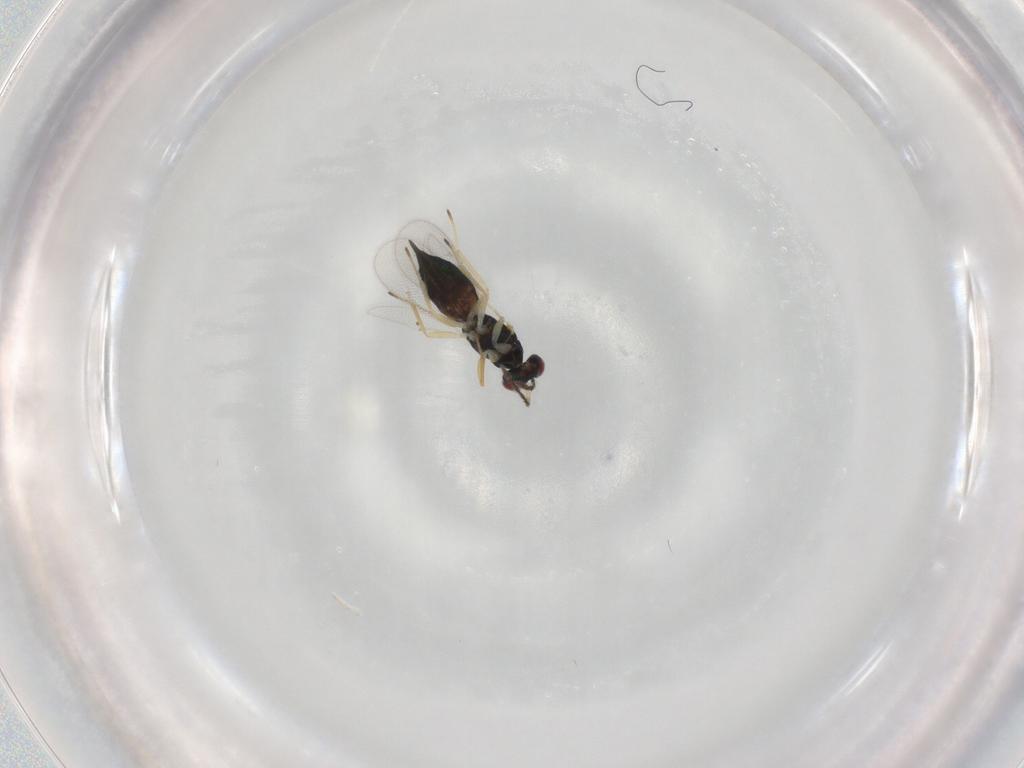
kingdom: Animalia
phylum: Arthropoda
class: Insecta
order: Hymenoptera
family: Eulophidae
